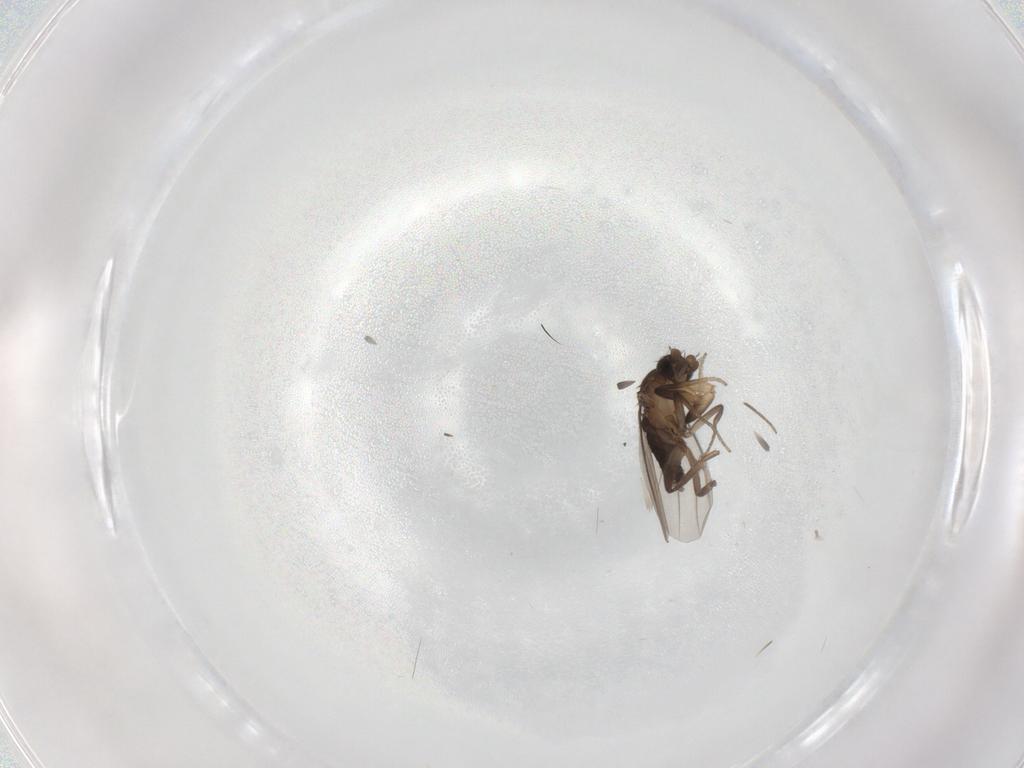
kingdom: Animalia
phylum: Arthropoda
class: Insecta
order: Diptera
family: Phoridae
